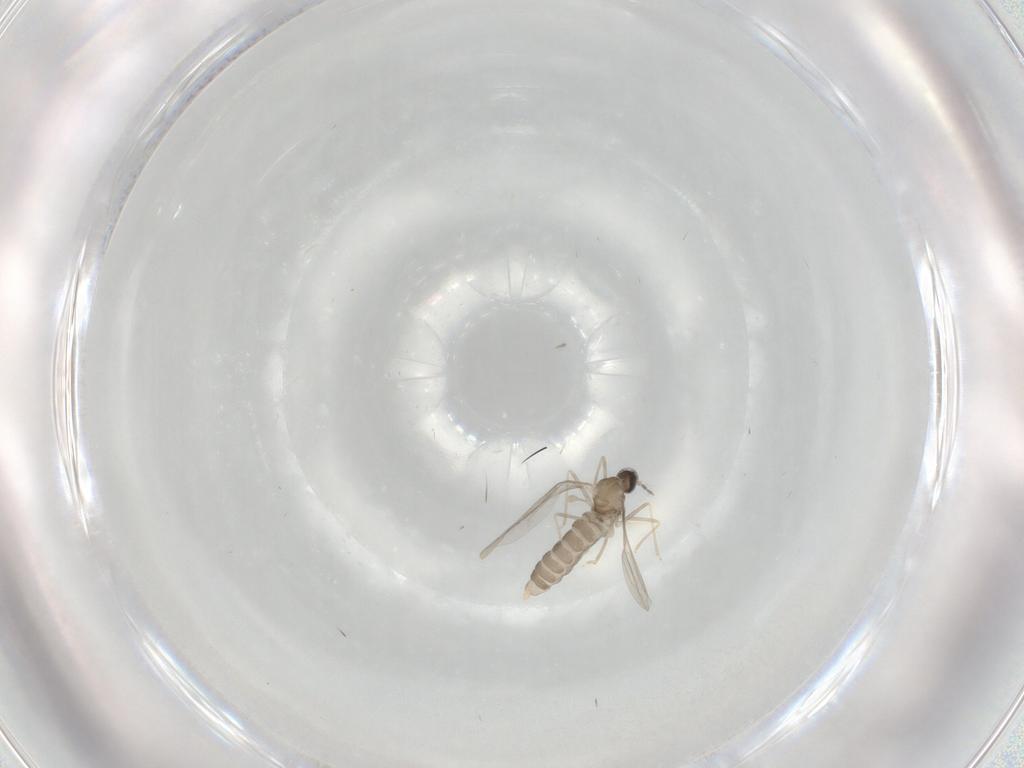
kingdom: Animalia
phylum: Arthropoda
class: Insecta
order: Diptera
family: Cecidomyiidae
